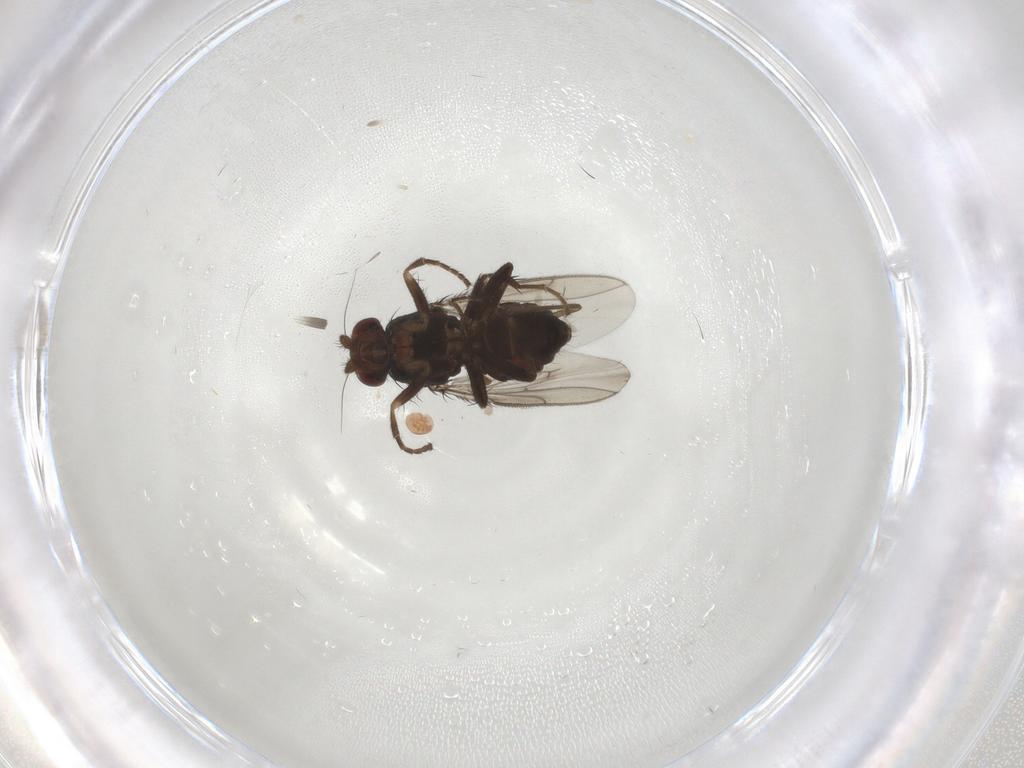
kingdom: Animalia
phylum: Arthropoda
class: Insecta
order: Diptera
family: Sphaeroceridae
